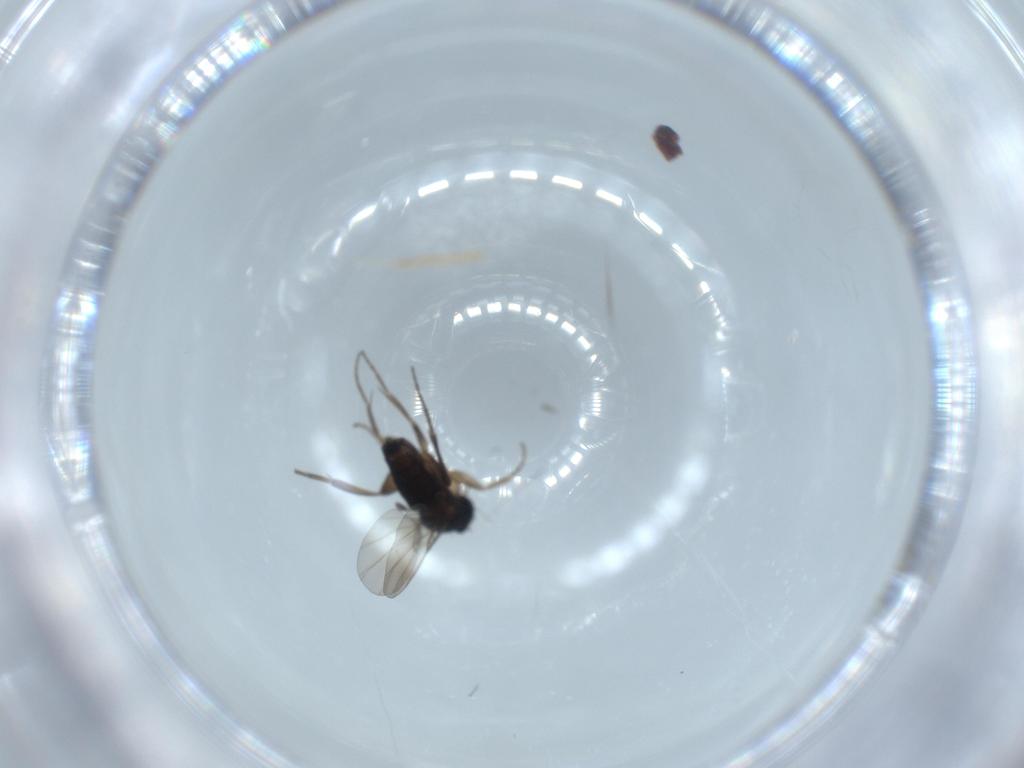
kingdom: Animalia
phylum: Arthropoda
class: Insecta
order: Diptera
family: Phoridae
